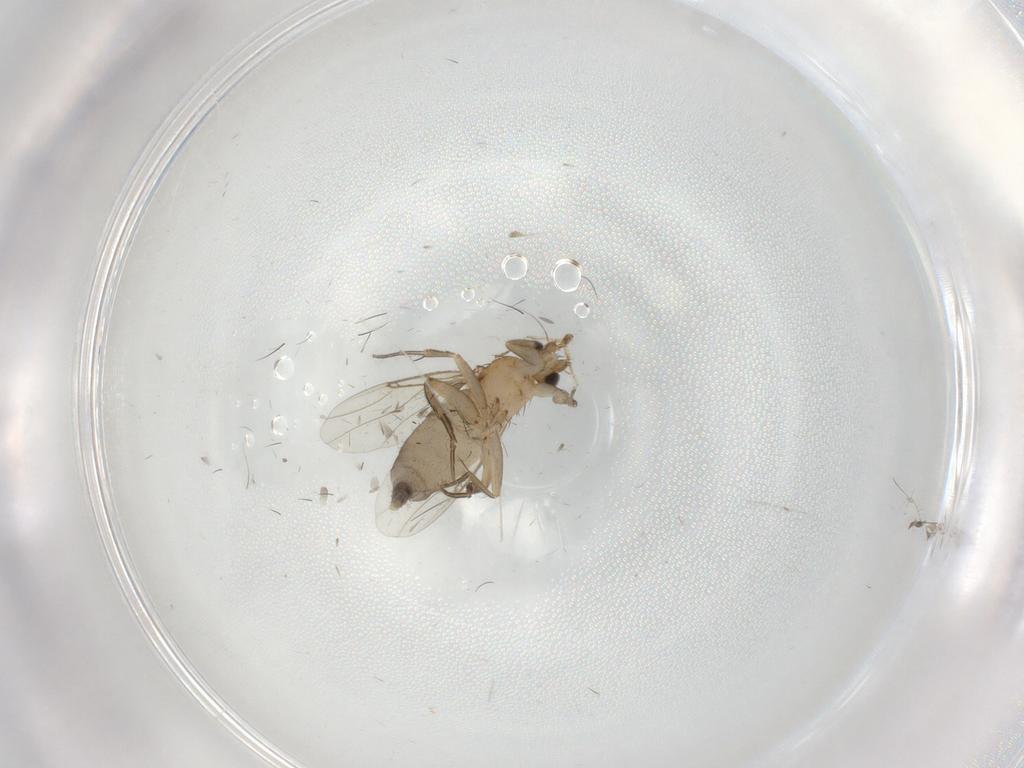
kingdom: Animalia
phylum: Arthropoda
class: Insecta
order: Diptera
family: Phoridae
